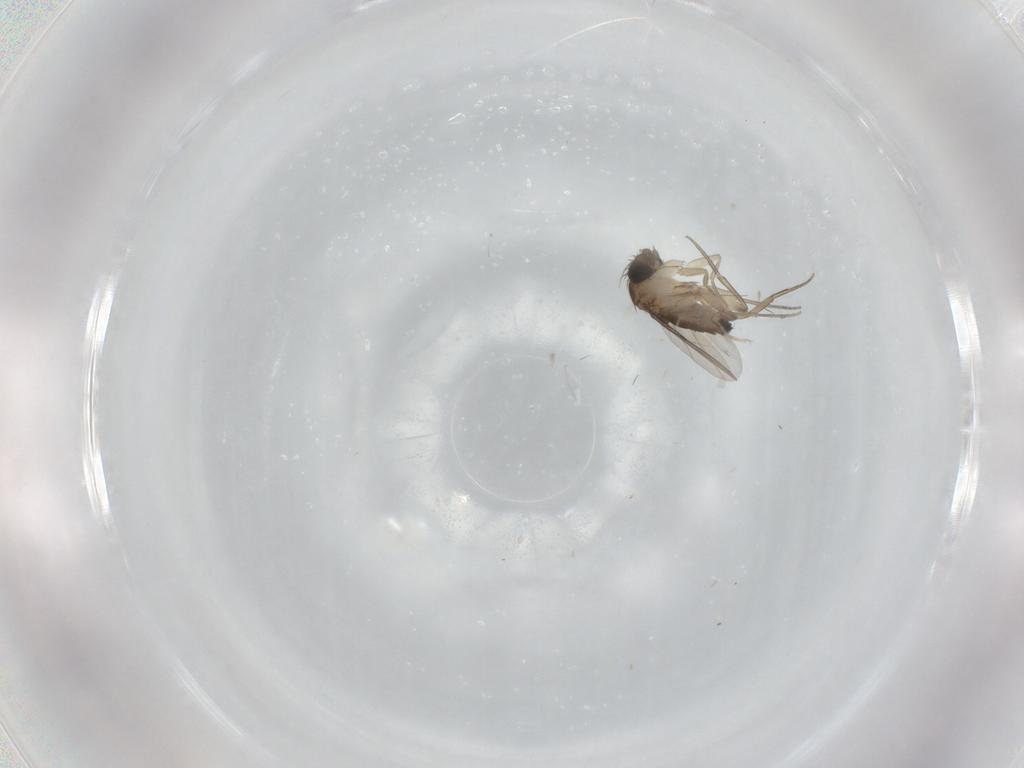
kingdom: Animalia
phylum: Arthropoda
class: Insecta
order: Diptera
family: Phoridae
